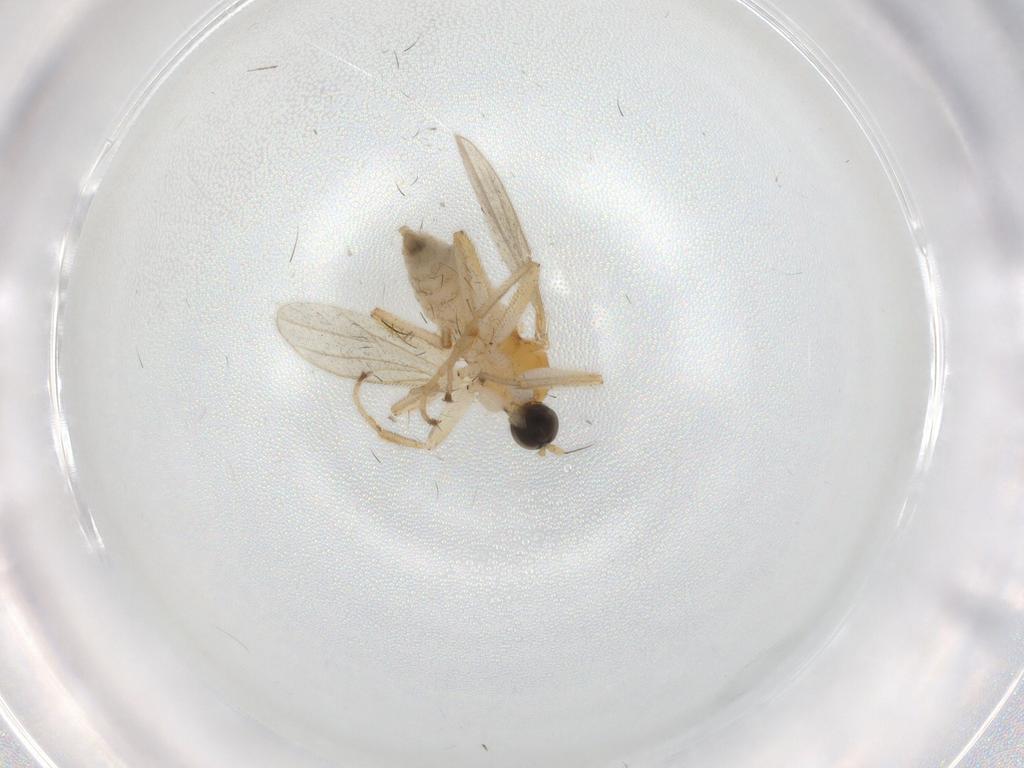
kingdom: Animalia
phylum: Arthropoda
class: Insecta
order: Diptera
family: Hybotidae
